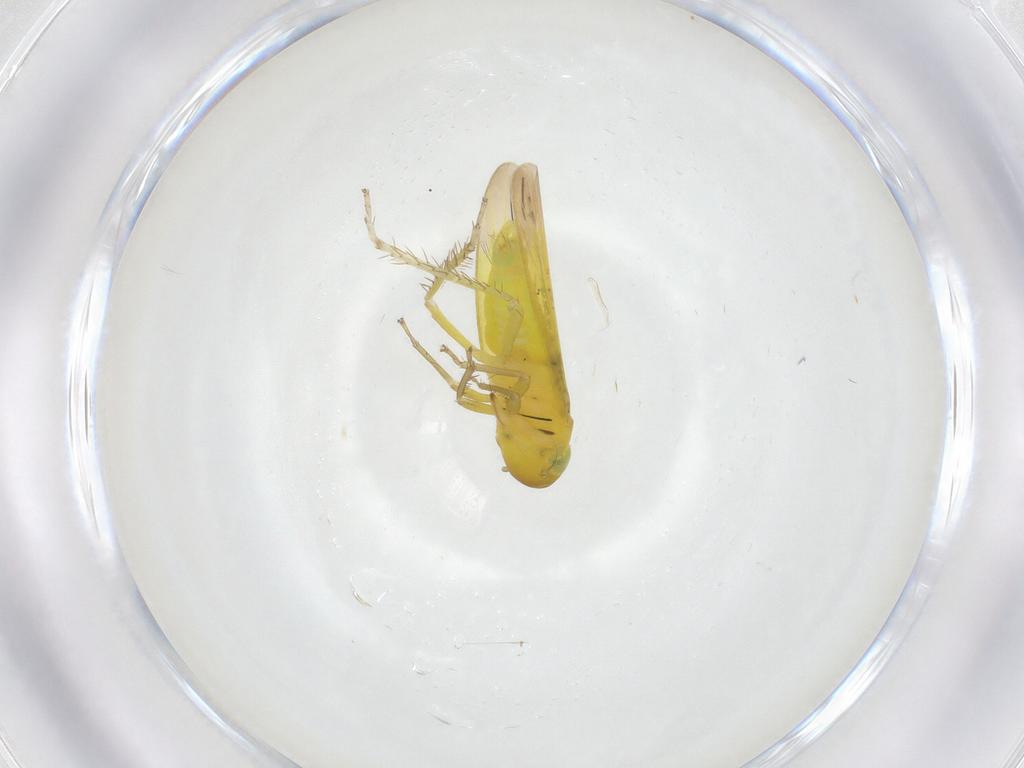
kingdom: Animalia
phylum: Arthropoda
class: Insecta
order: Hemiptera
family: Cicadellidae
